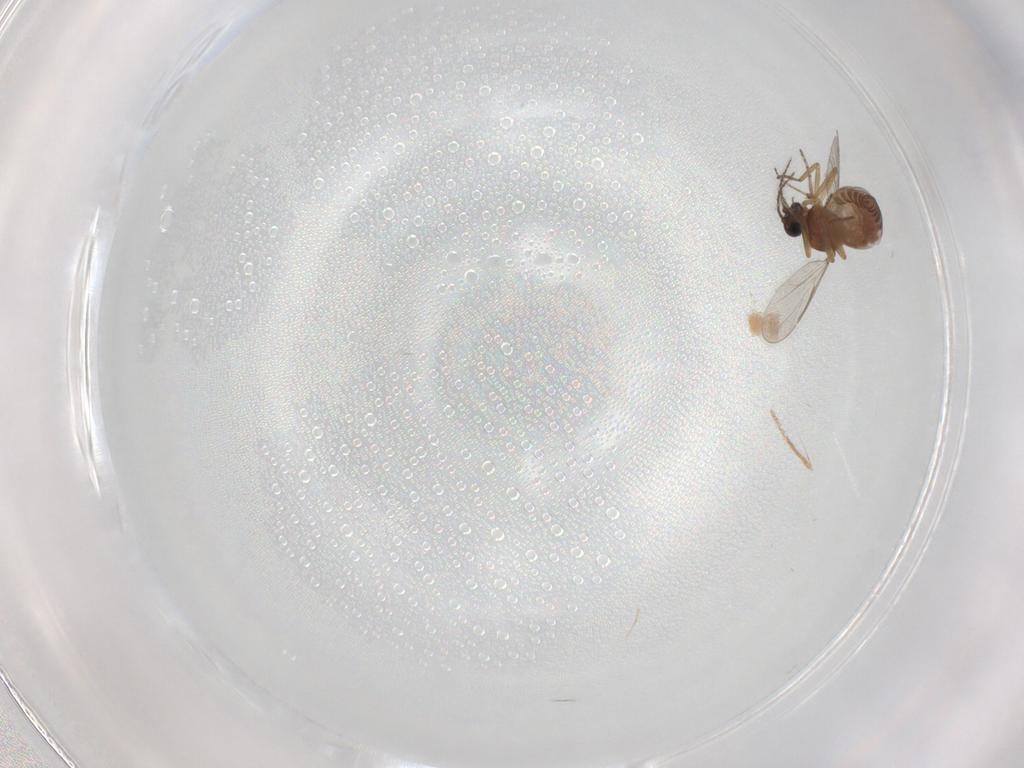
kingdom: Animalia
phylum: Arthropoda
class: Insecta
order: Diptera
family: Ceratopogonidae
